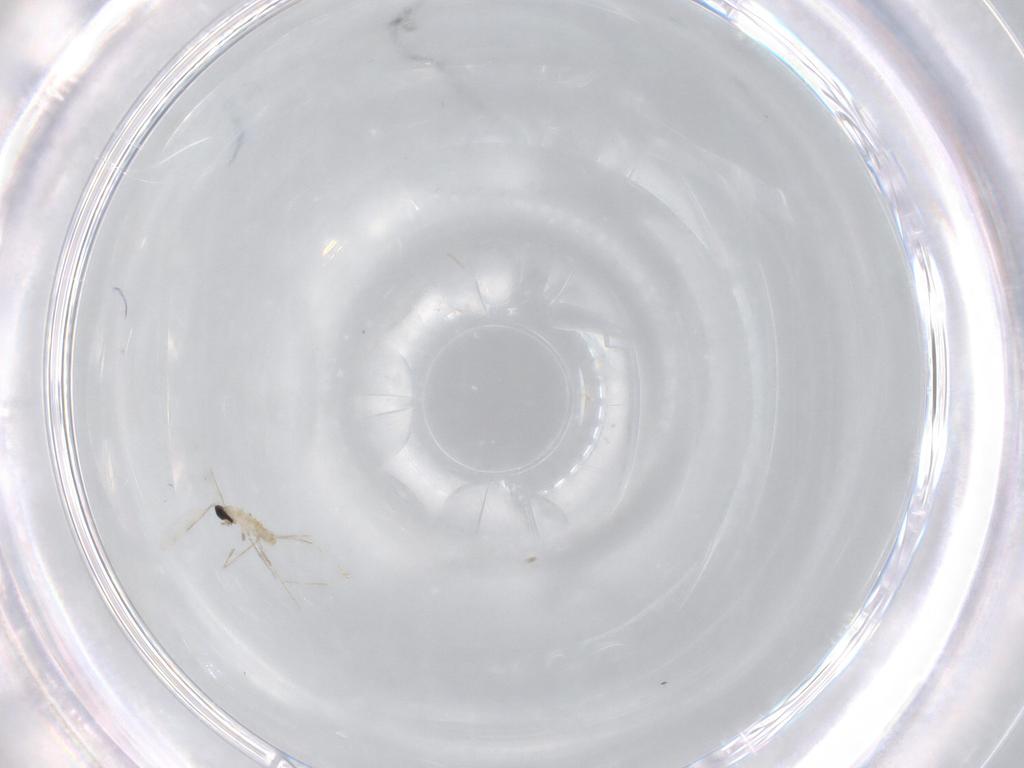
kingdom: Animalia
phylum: Arthropoda
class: Insecta
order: Diptera
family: Cecidomyiidae
